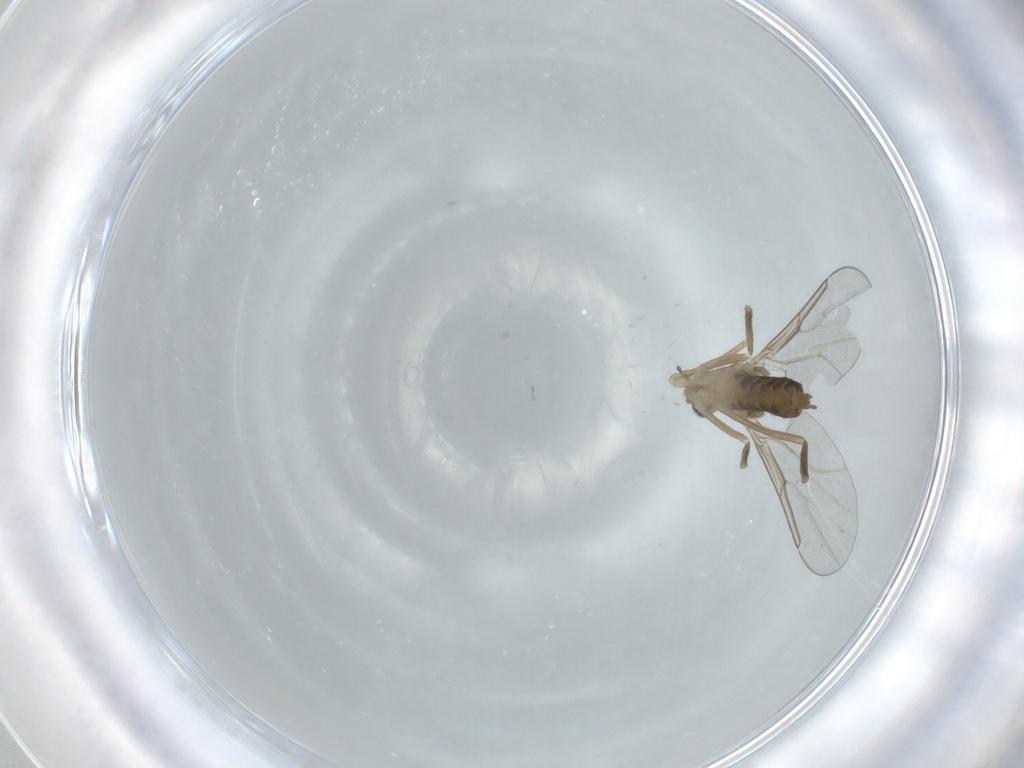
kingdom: Animalia
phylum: Arthropoda
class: Insecta
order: Diptera
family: Cecidomyiidae
